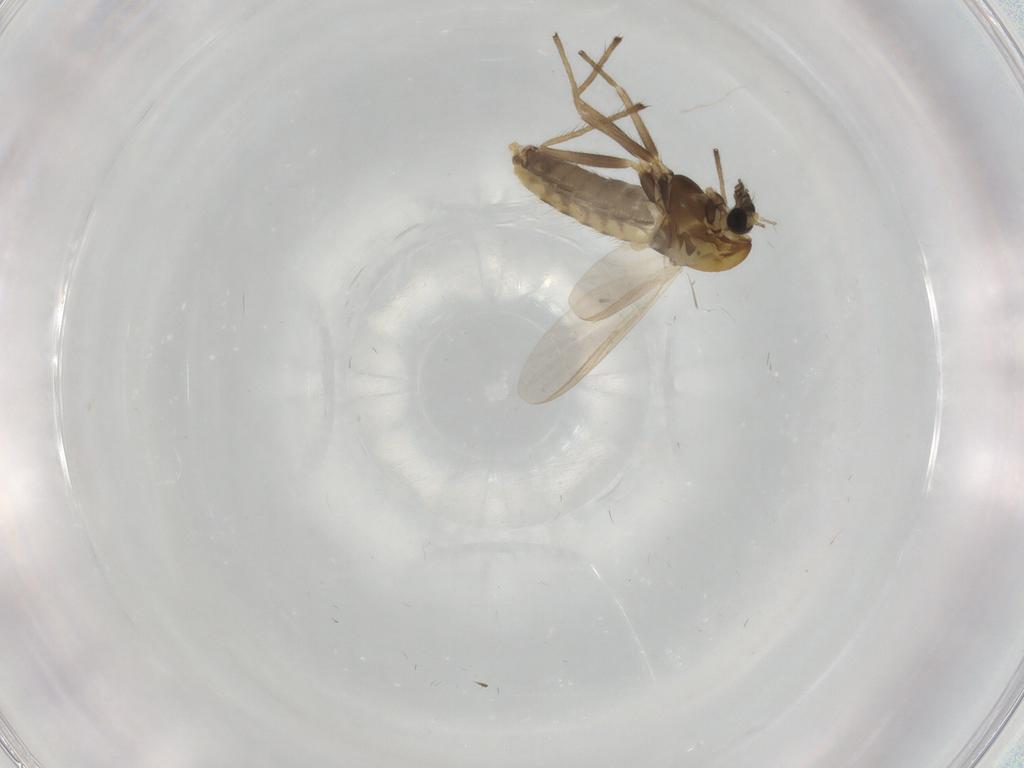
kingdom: Animalia
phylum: Arthropoda
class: Insecta
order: Diptera
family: Chironomidae
